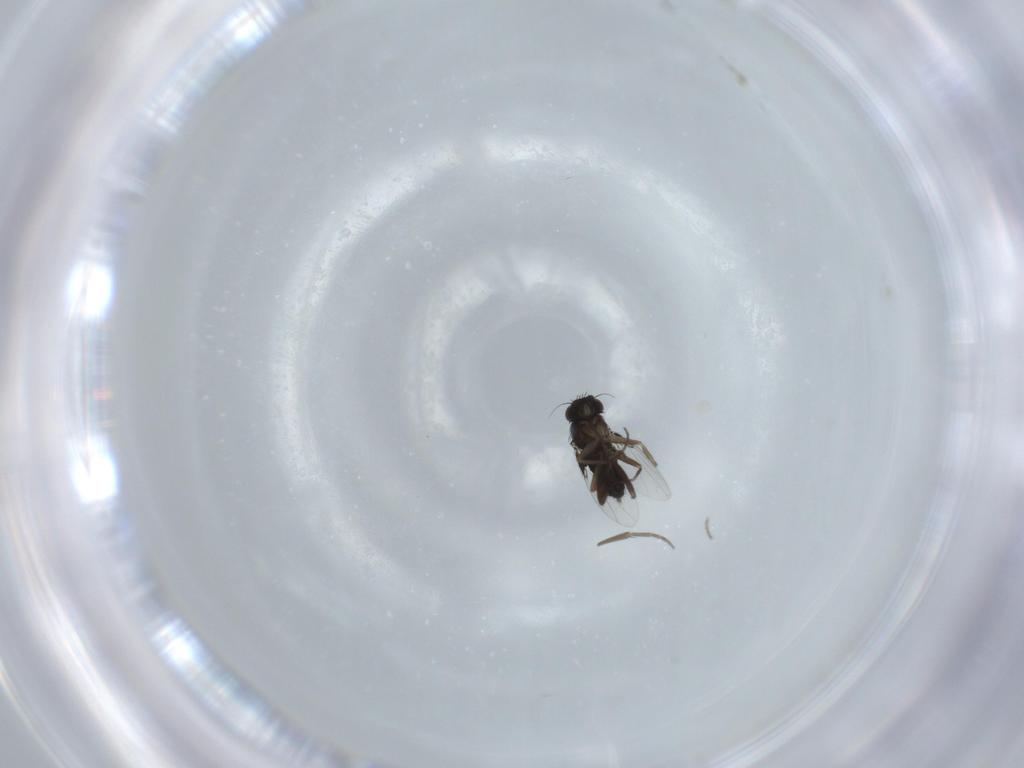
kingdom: Animalia
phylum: Arthropoda
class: Insecta
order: Diptera
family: Phoridae
